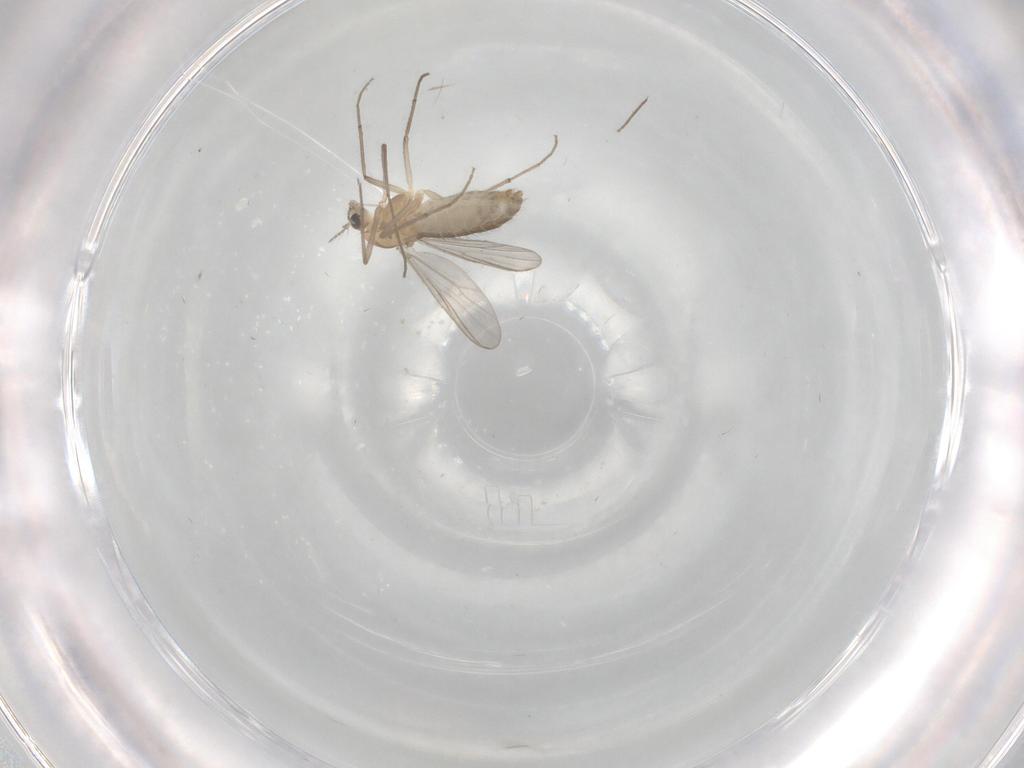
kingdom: Animalia
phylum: Arthropoda
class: Insecta
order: Diptera
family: Chironomidae
